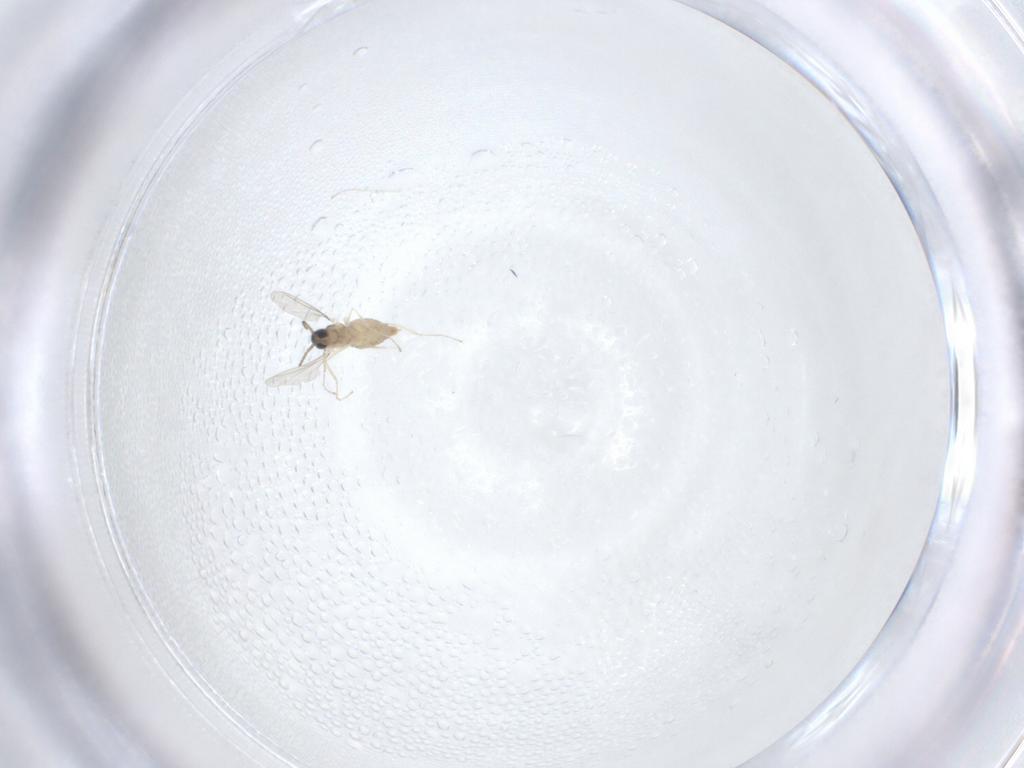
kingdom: Animalia
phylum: Arthropoda
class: Insecta
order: Diptera
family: Cecidomyiidae
